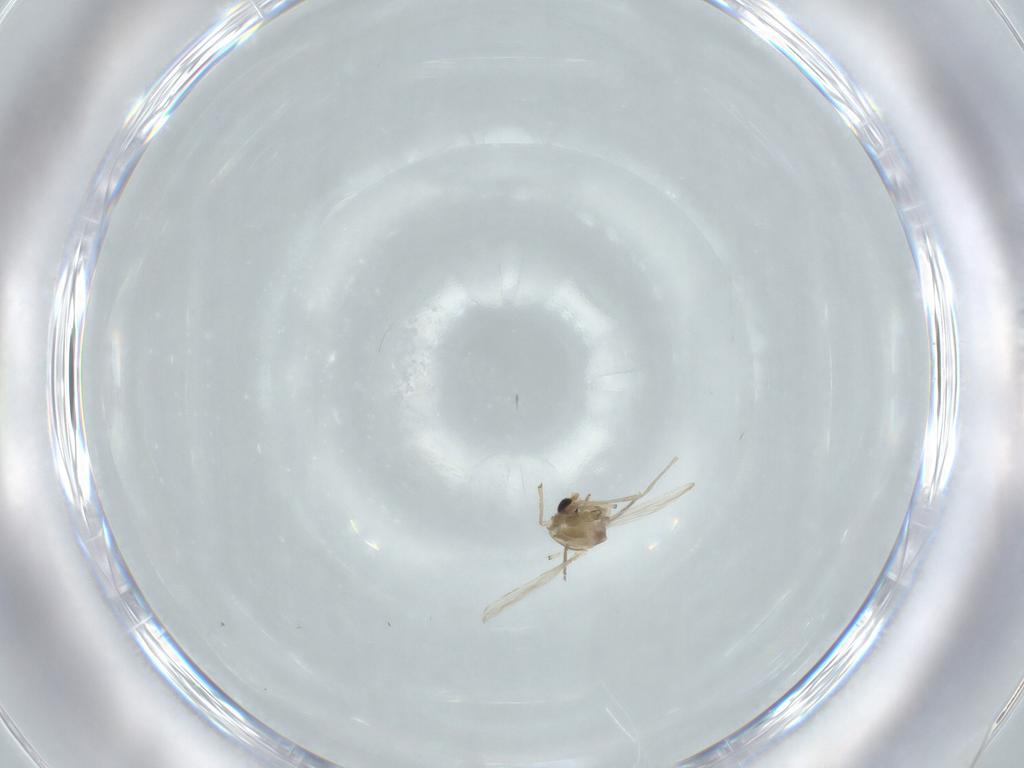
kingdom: Animalia
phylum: Arthropoda
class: Insecta
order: Diptera
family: Chironomidae
